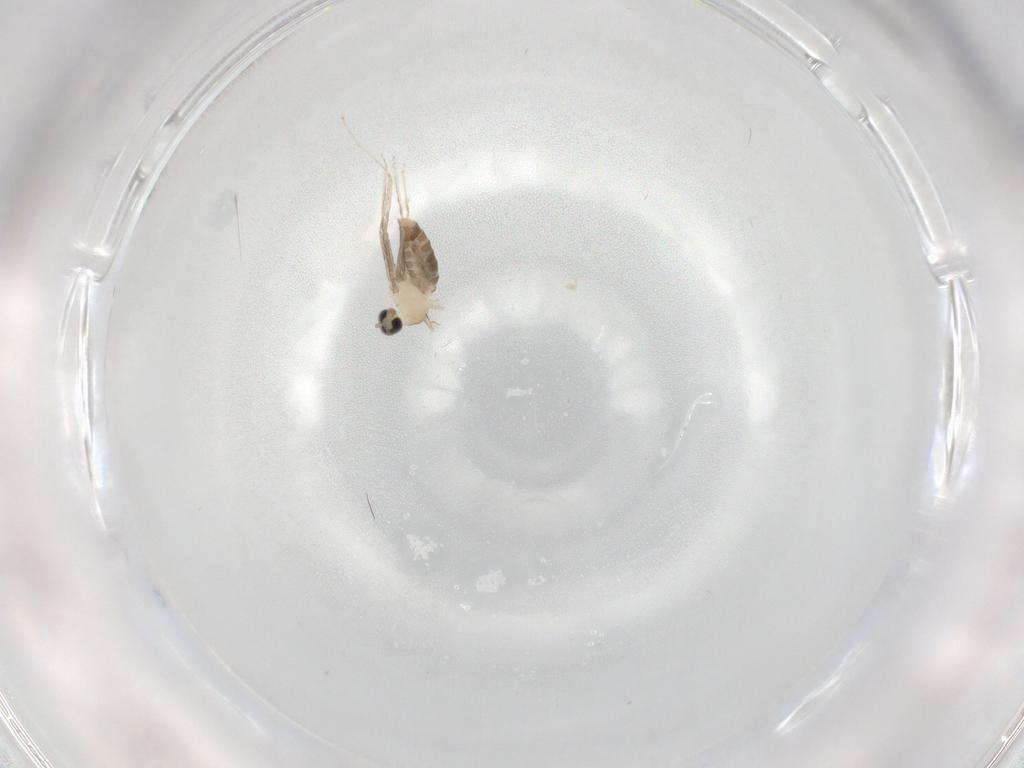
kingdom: Animalia
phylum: Arthropoda
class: Insecta
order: Diptera
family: Cecidomyiidae
